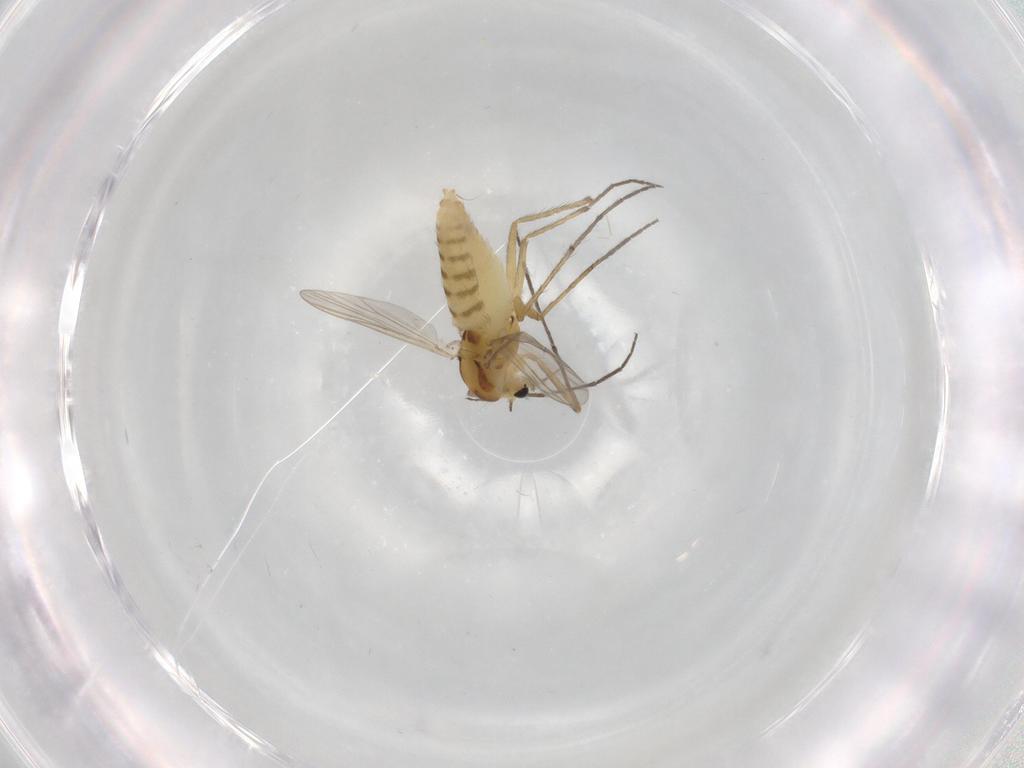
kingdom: Animalia
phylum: Arthropoda
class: Insecta
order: Diptera
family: Chironomidae
